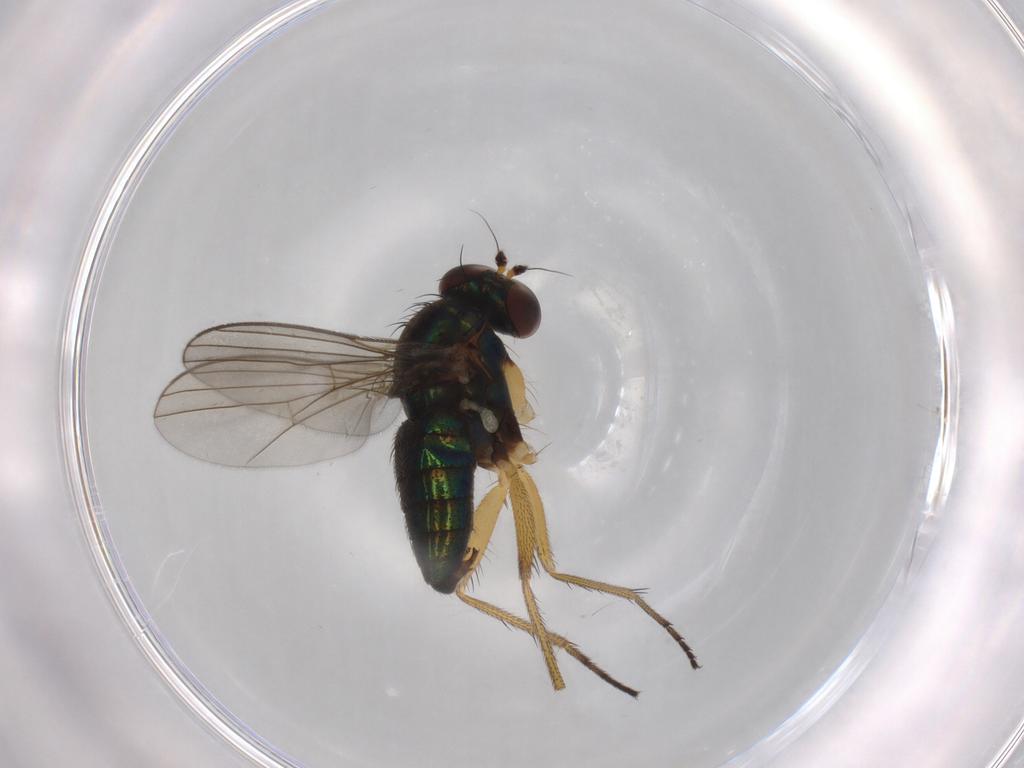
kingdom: Animalia
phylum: Arthropoda
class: Insecta
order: Diptera
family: Dolichopodidae
